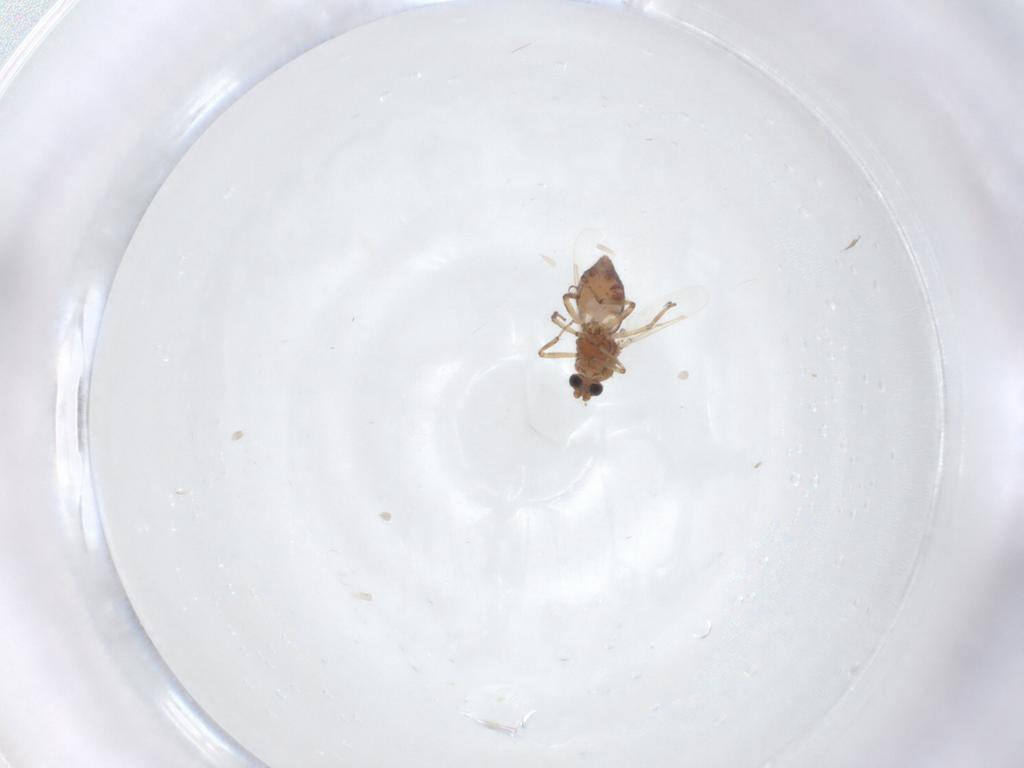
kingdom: Animalia
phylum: Arthropoda
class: Insecta
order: Diptera
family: Ceratopogonidae
